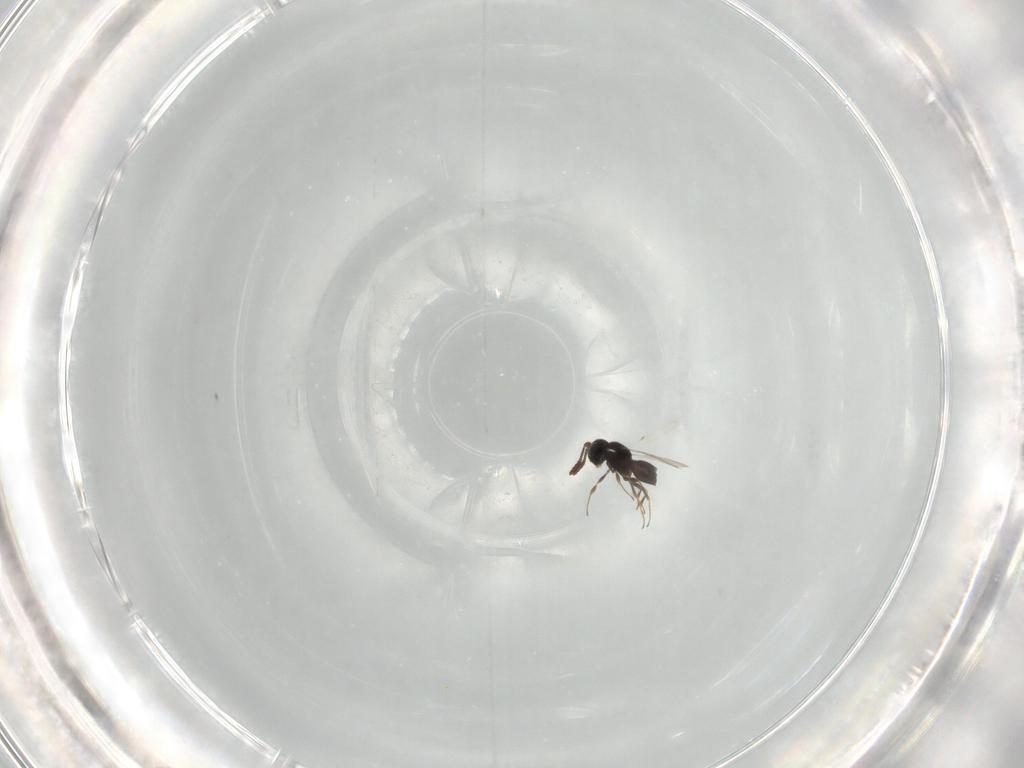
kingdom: Animalia
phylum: Arthropoda
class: Insecta
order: Hymenoptera
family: Scelionidae
